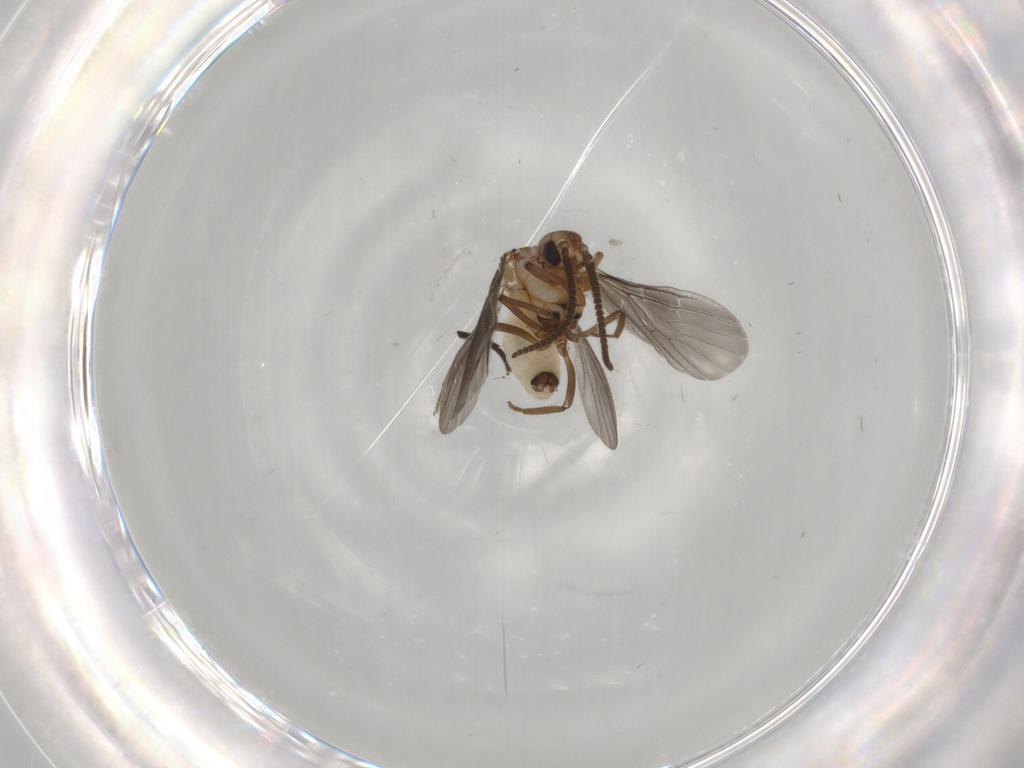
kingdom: Animalia
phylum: Arthropoda
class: Insecta
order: Neuroptera
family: Coniopterygidae
